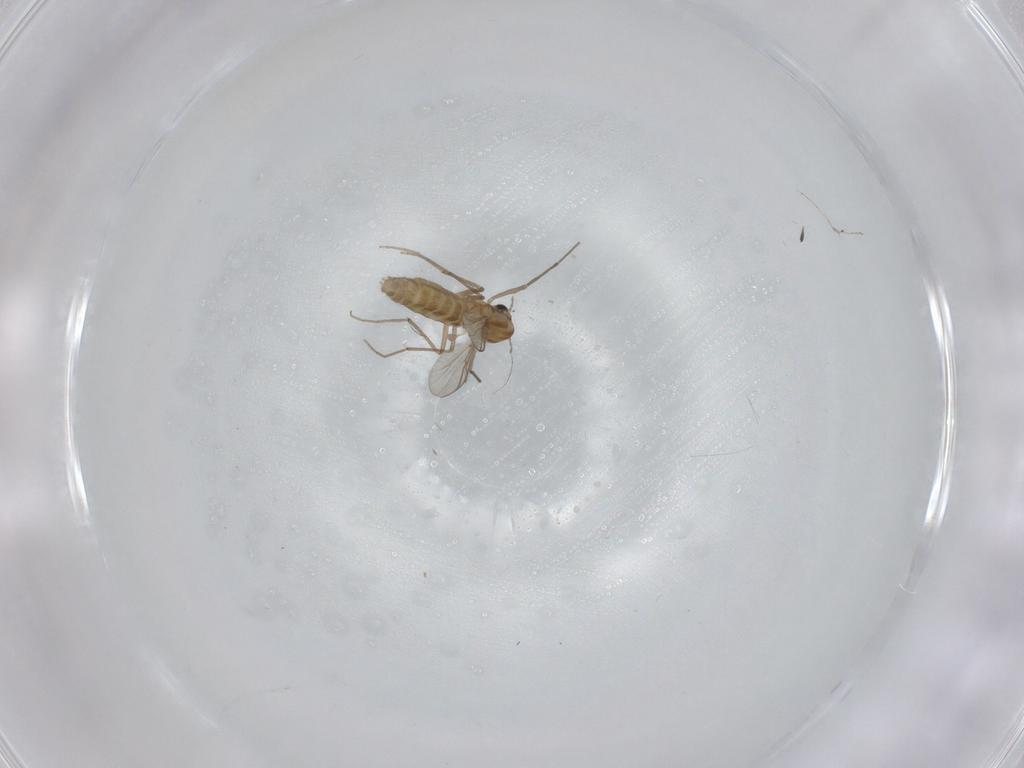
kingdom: Animalia
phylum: Arthropoda
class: Insecta
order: Diptera
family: Chironomidae
